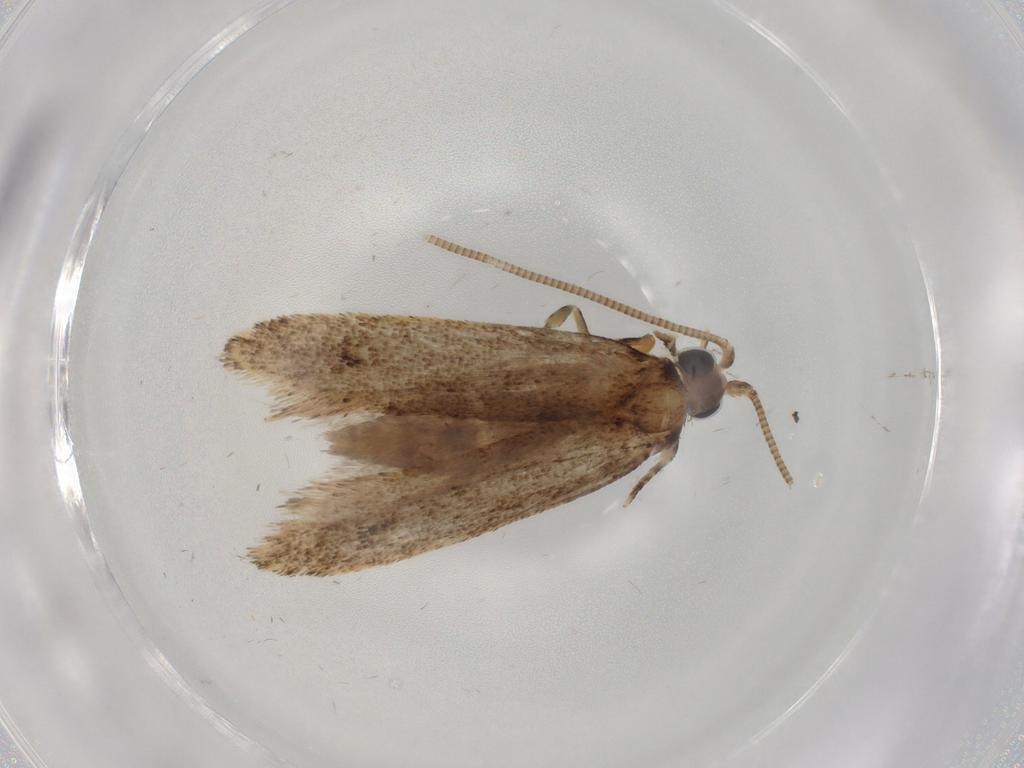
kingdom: Animalia
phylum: Arthropoda
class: Insecta
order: Lepidoptera
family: Nepticulidae
